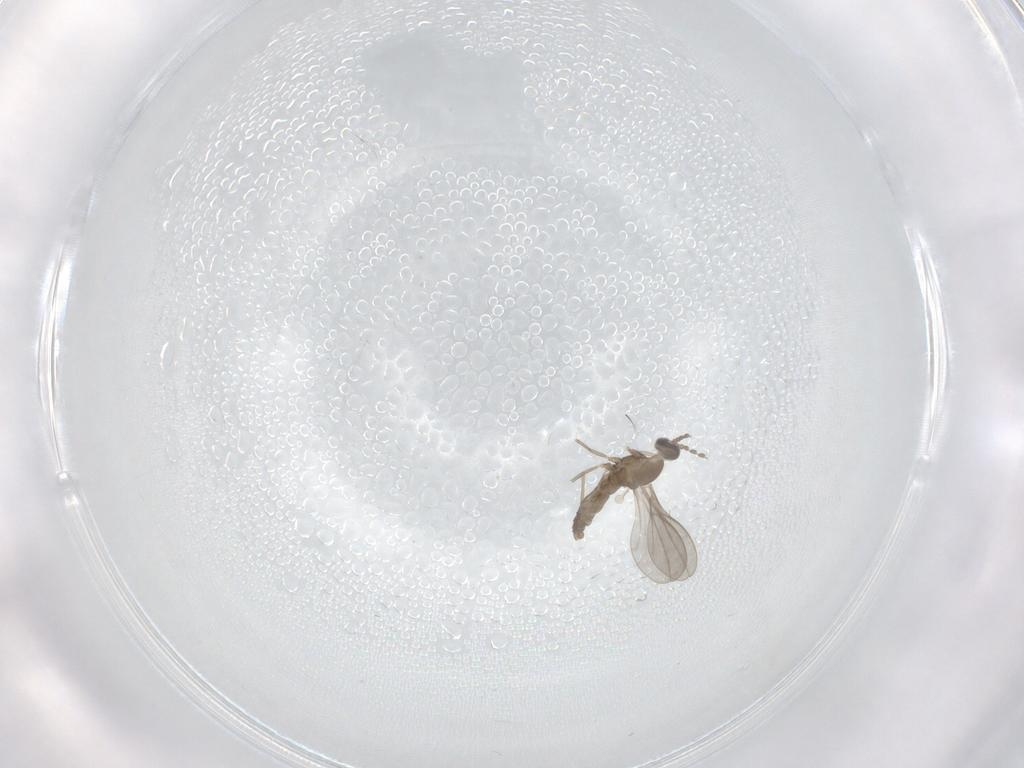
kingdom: Animalia
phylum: Arthropoda
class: Insecta
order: Diptera
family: Cecidomyiidae
